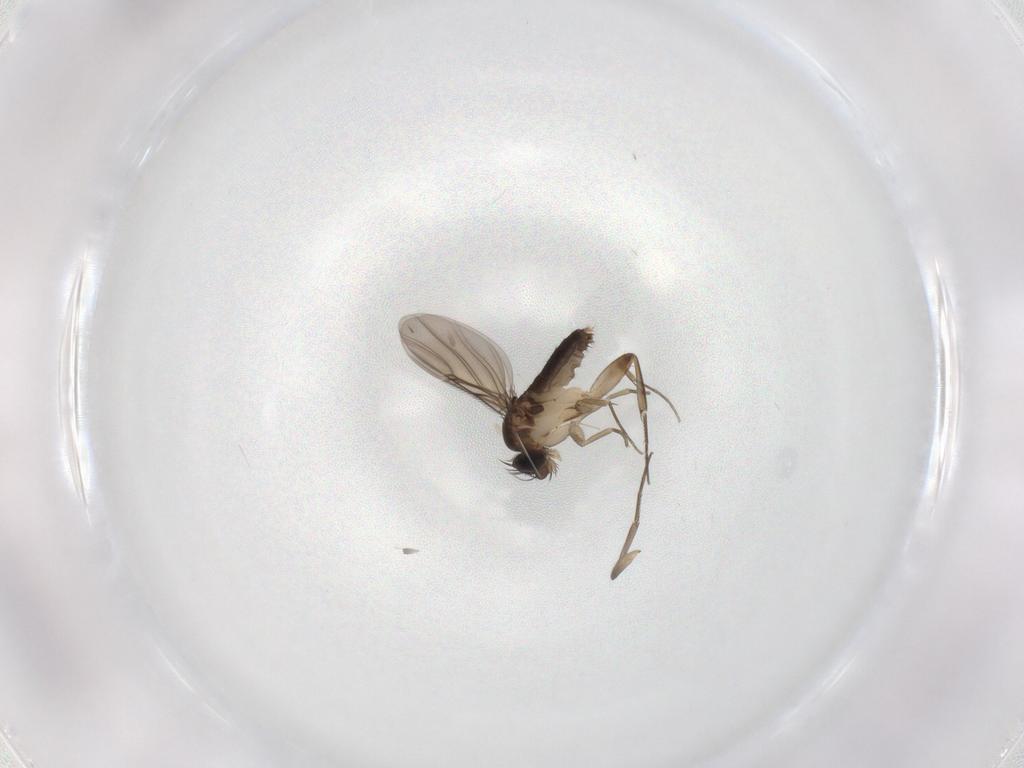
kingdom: Animalia
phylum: Arthropoda
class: Insecta
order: Diptera
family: Phoridae
